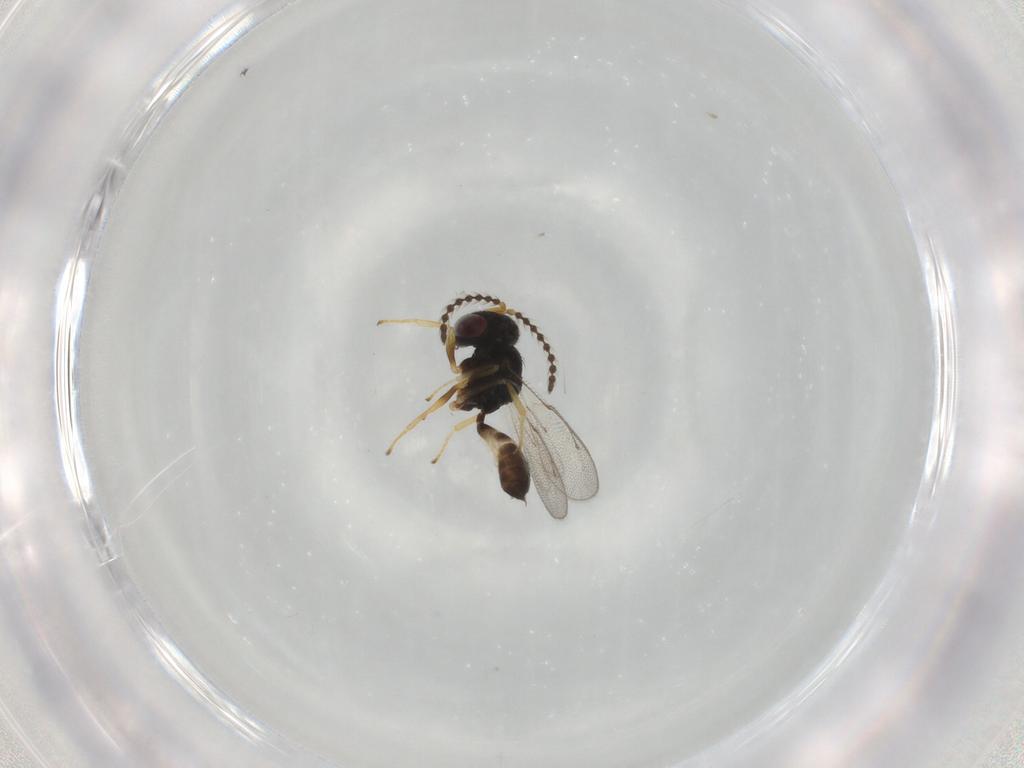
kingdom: Animalia
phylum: Arthropoda
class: Insecta
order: Hymenoptera
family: Pteromalidae
